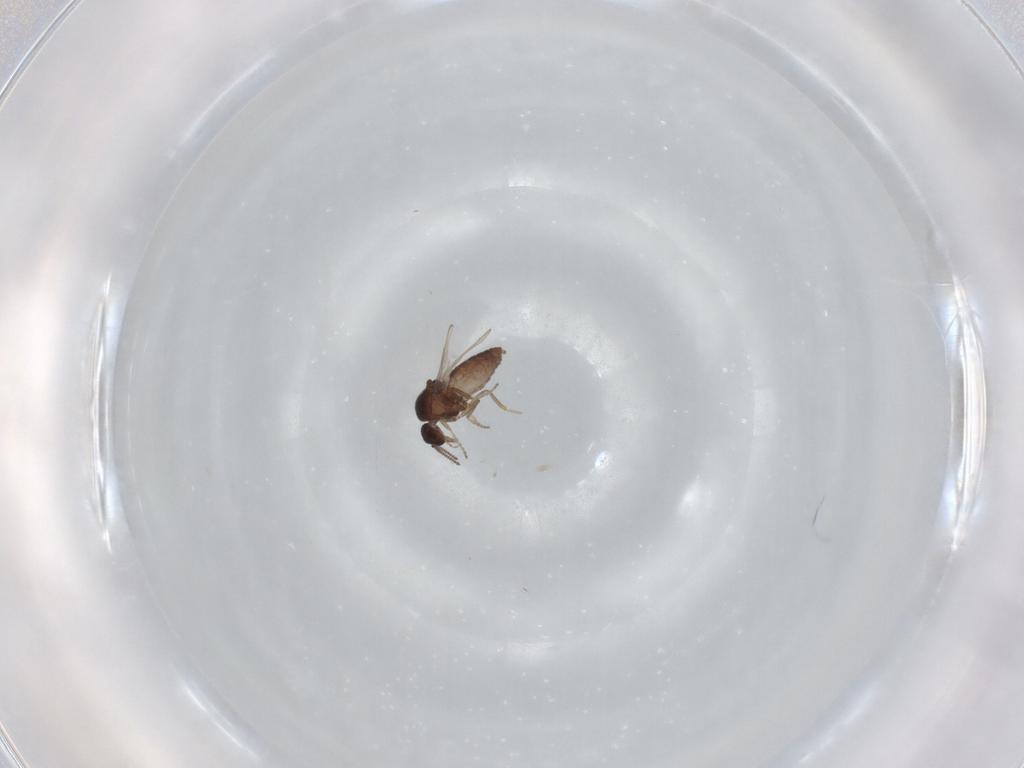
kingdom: Animalia
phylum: Arthropoda
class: Insecta
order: Diptera
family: Ceratopogonidae
